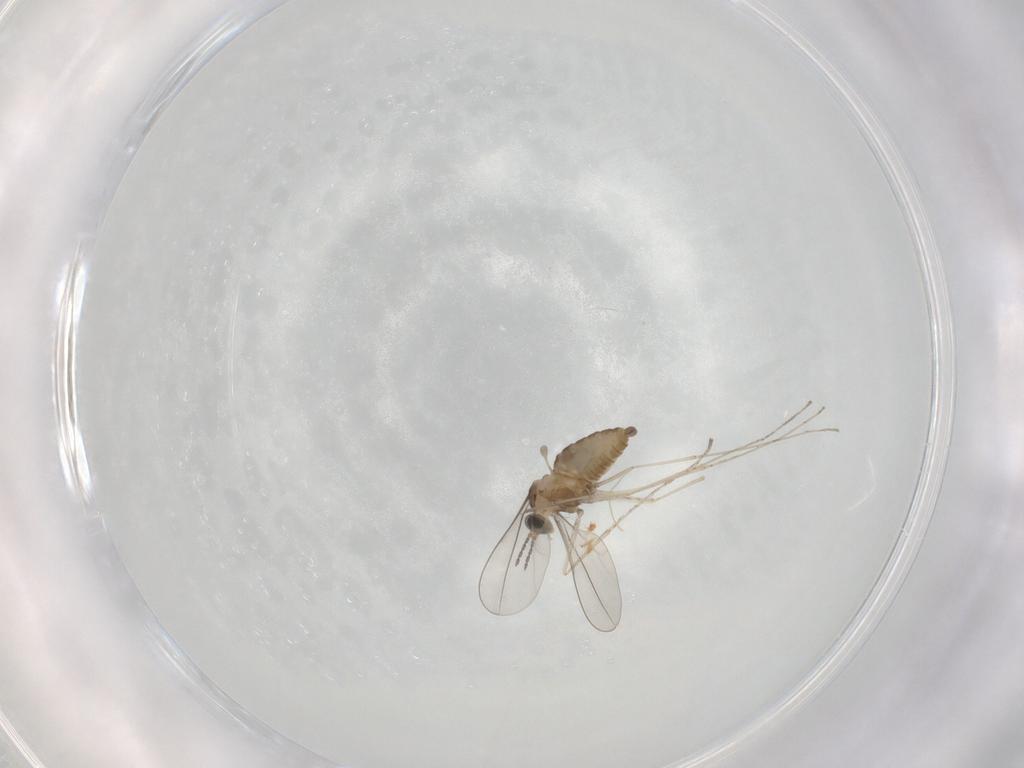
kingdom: Animalia
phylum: Arthropoda
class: Insecta
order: Diptera
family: Cecidomyiidae
